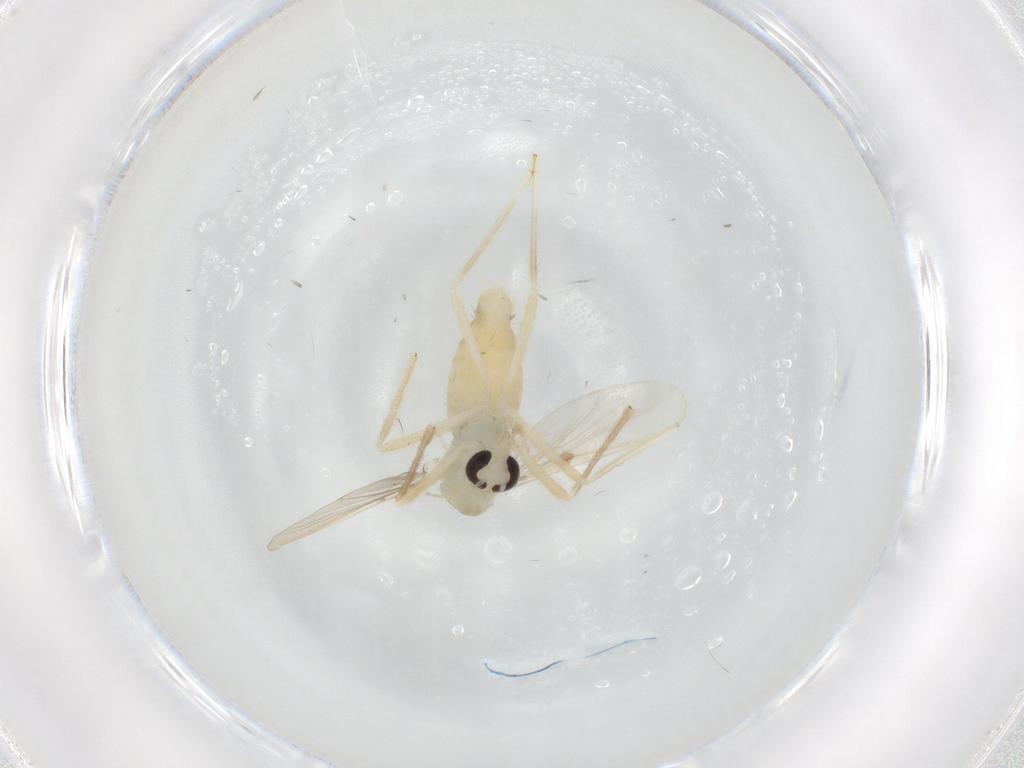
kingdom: Animalia
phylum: Arthropoda
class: Insecta
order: Diptera
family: Chironomidae
